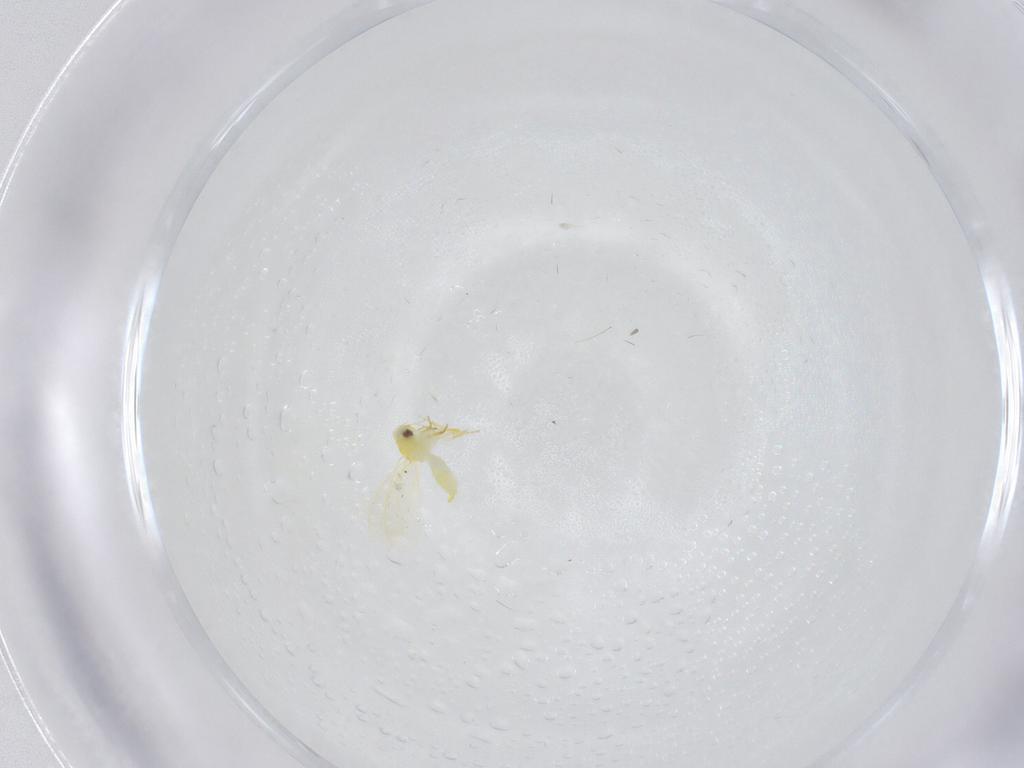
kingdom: Animalia
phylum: Arthropoda
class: Insecta
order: Hemiptera
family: Aleyrodidae
